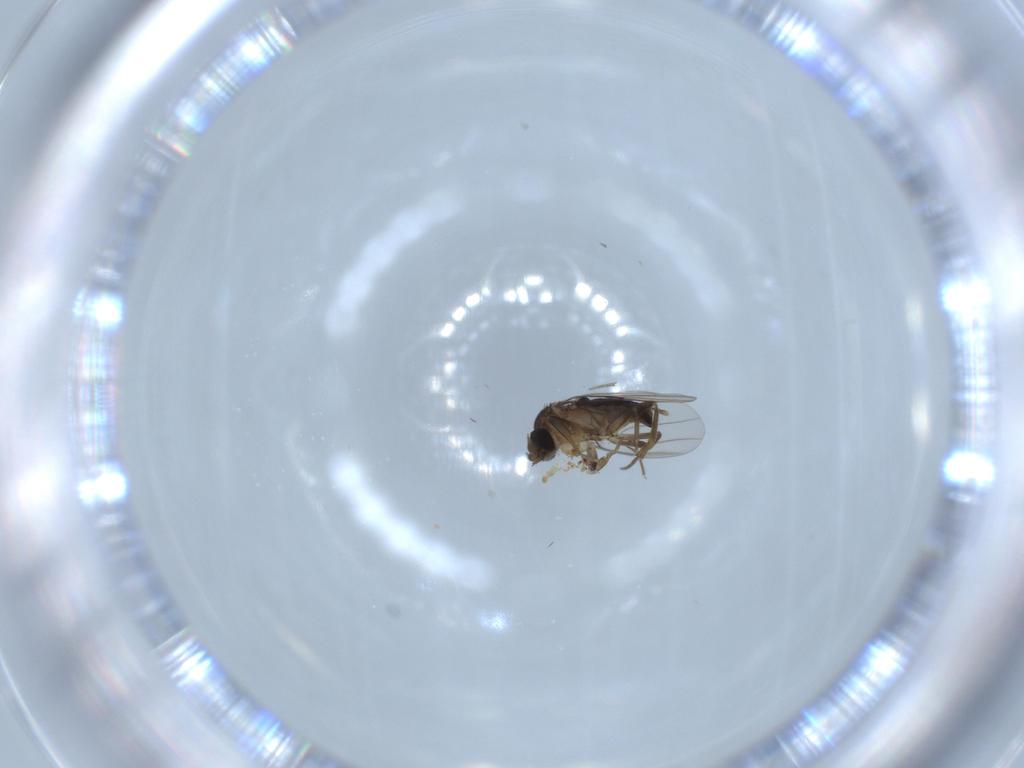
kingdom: Animalia
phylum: Arthropoda
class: Insecta
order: Diptera
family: Phoridae
